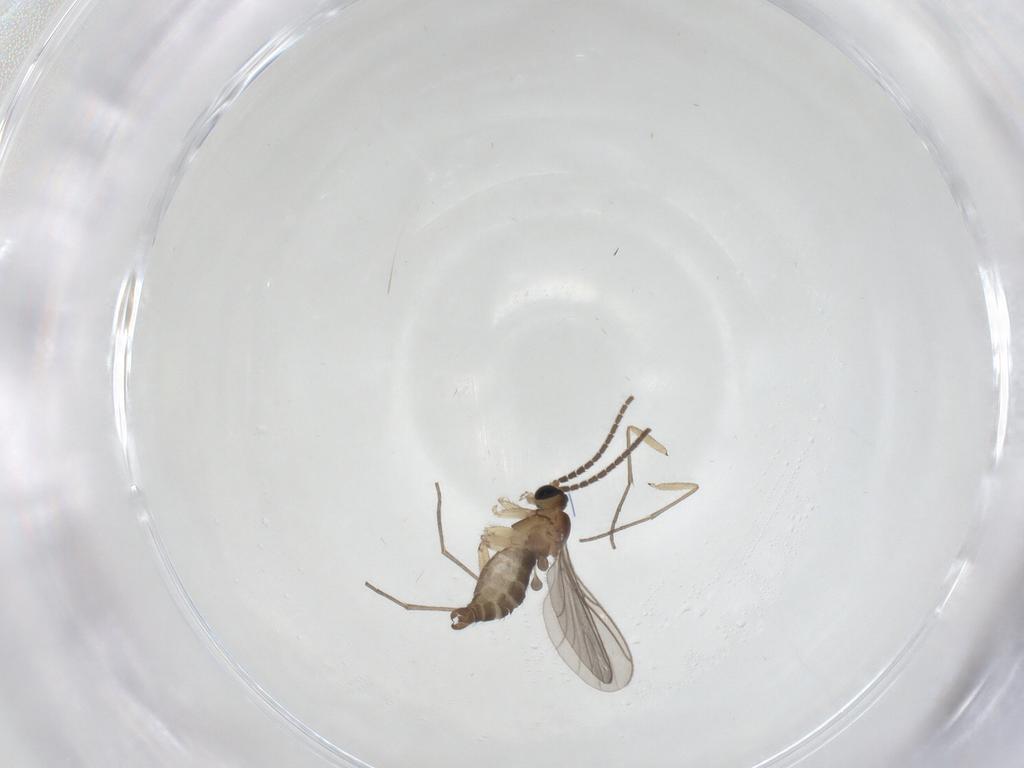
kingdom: Animalia
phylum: Arthropoda
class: Insecta
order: Diptera
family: Sciaridae
